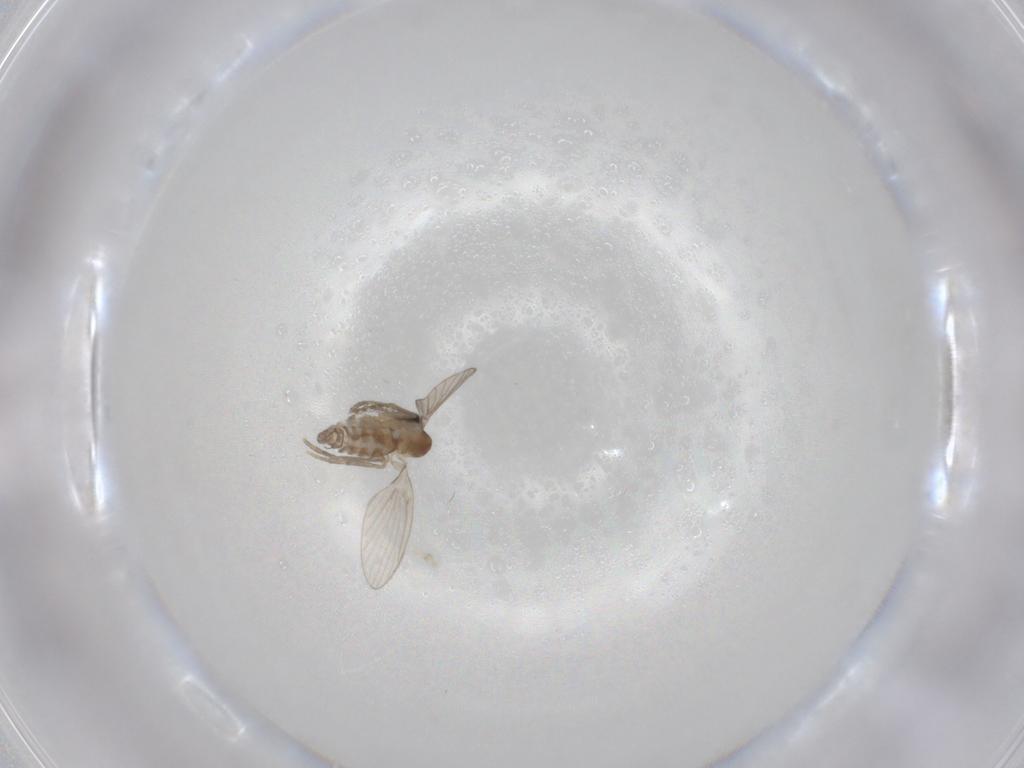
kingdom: Animalia
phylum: Arthropoda
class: Insecta
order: Diptera
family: Cecidomyiidae
